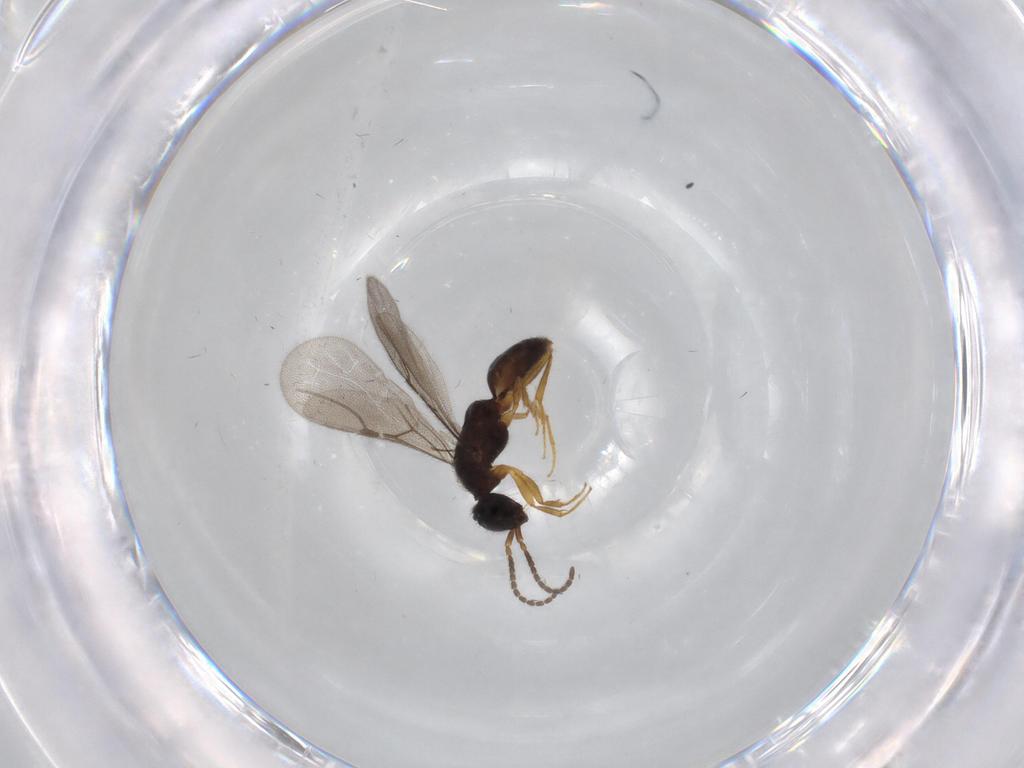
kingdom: Animalia
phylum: Arthropoda
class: Insecta
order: Hymenoptera
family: Bethylidae
